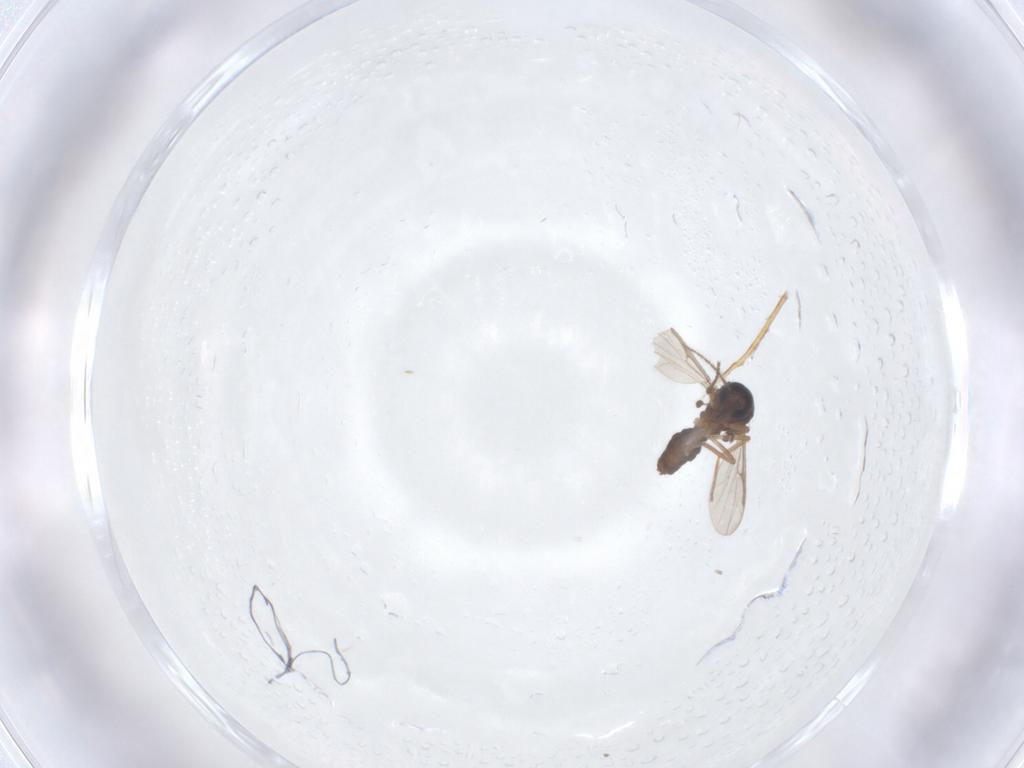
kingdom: Animalia
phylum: Arthropoda
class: Insecta
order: Diptera
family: Ceratopogonidae
